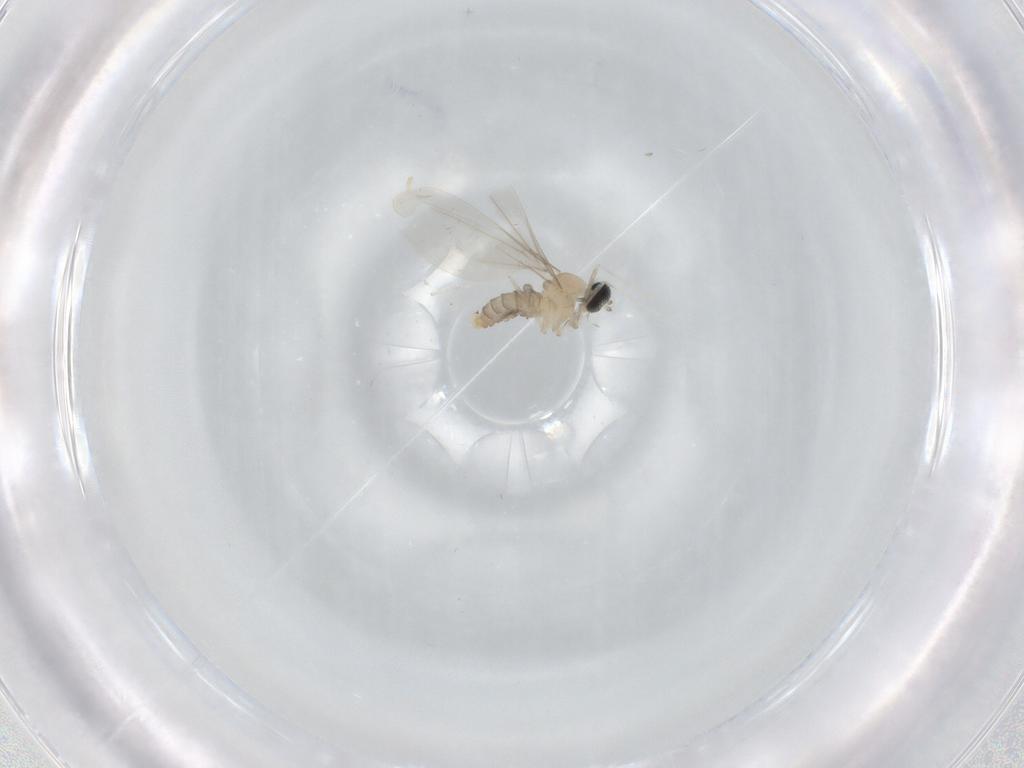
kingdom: Animalia
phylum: Arthropoda
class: Insecta
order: Diptera
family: Cecidomyiidae
